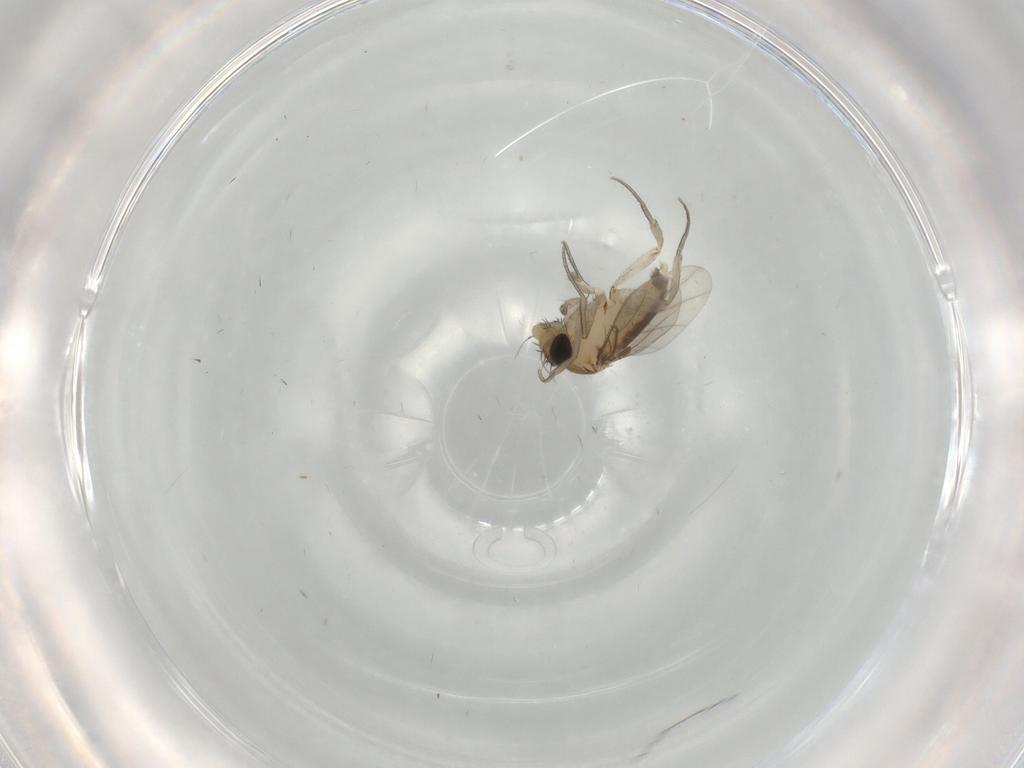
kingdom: Animalia
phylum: Arthropoda
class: Insecta
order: Diptera
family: Phoridae
